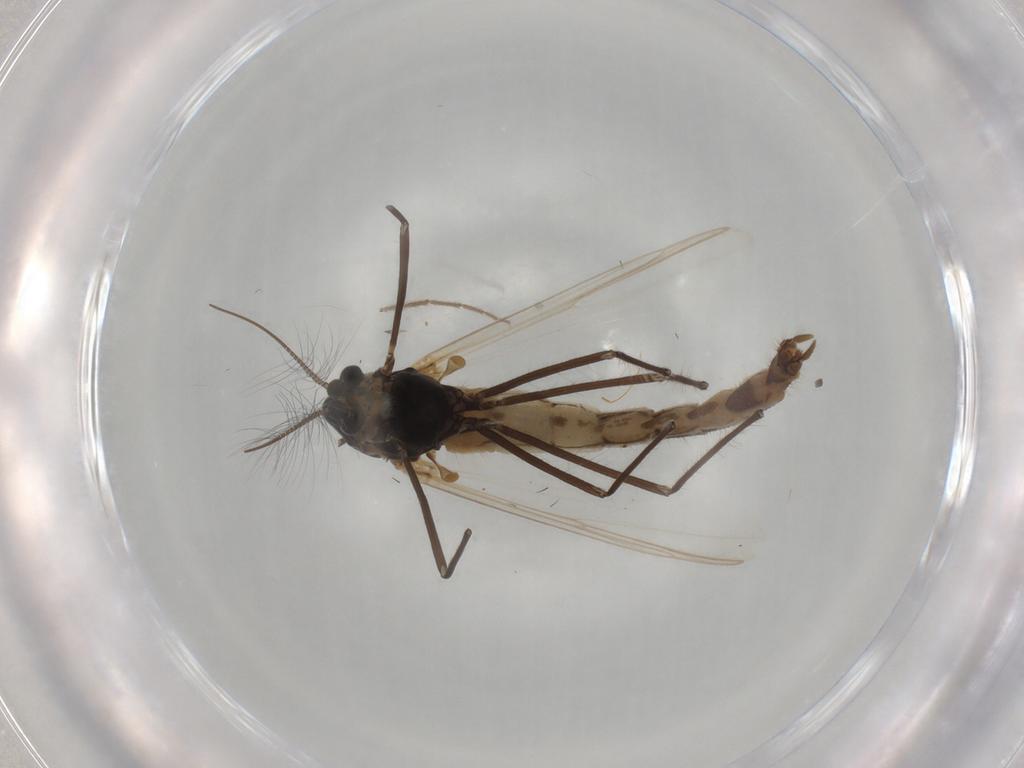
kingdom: Animalia
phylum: Arthropoda
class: Insecta
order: Diptera
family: Chironomidae
